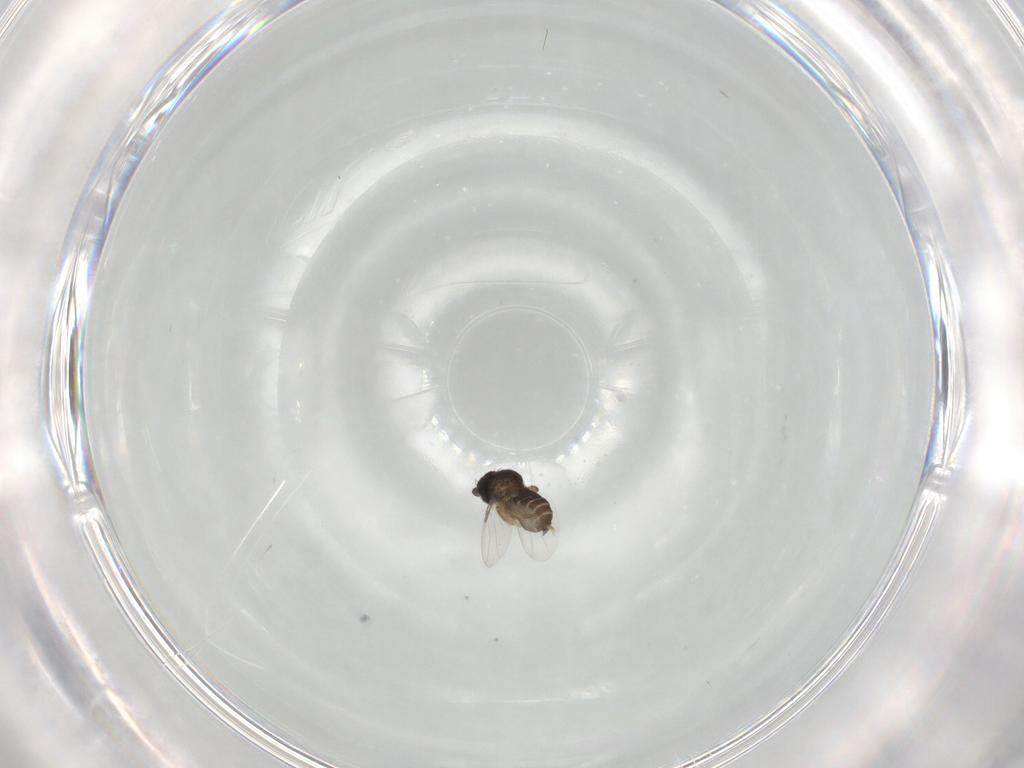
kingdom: Animalia
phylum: Arthropoda
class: Insecta
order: Diptera
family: Phoridae
